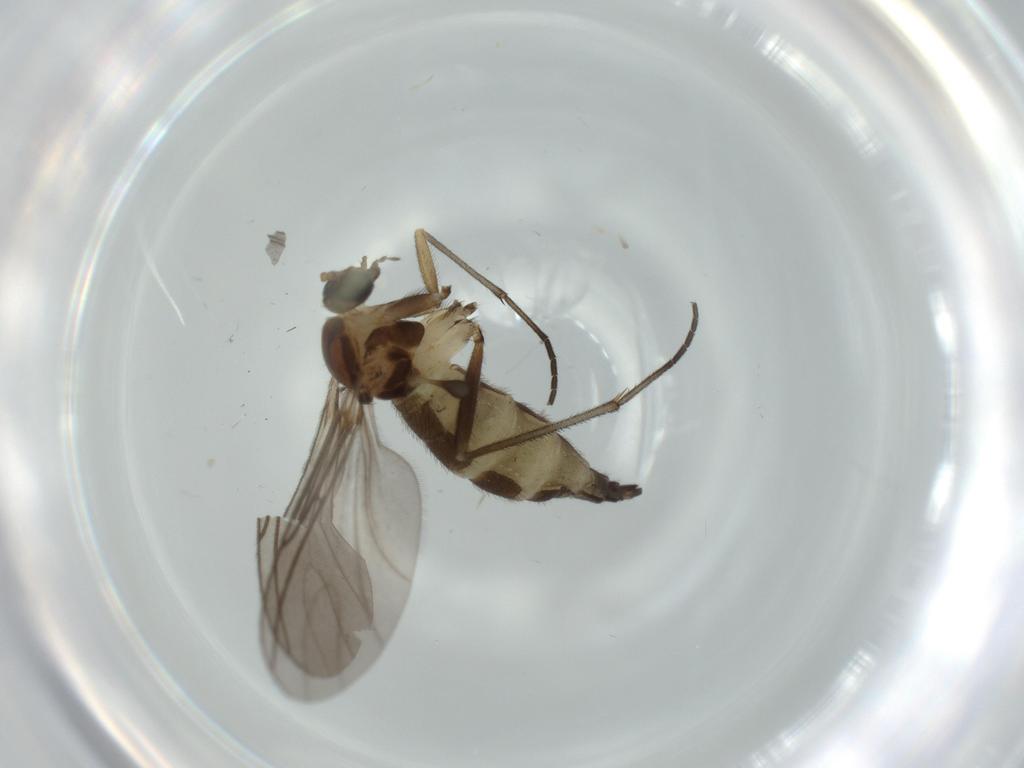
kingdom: Animalia
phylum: Arthropoda
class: Insecta
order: Diptera
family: Sciaridae
